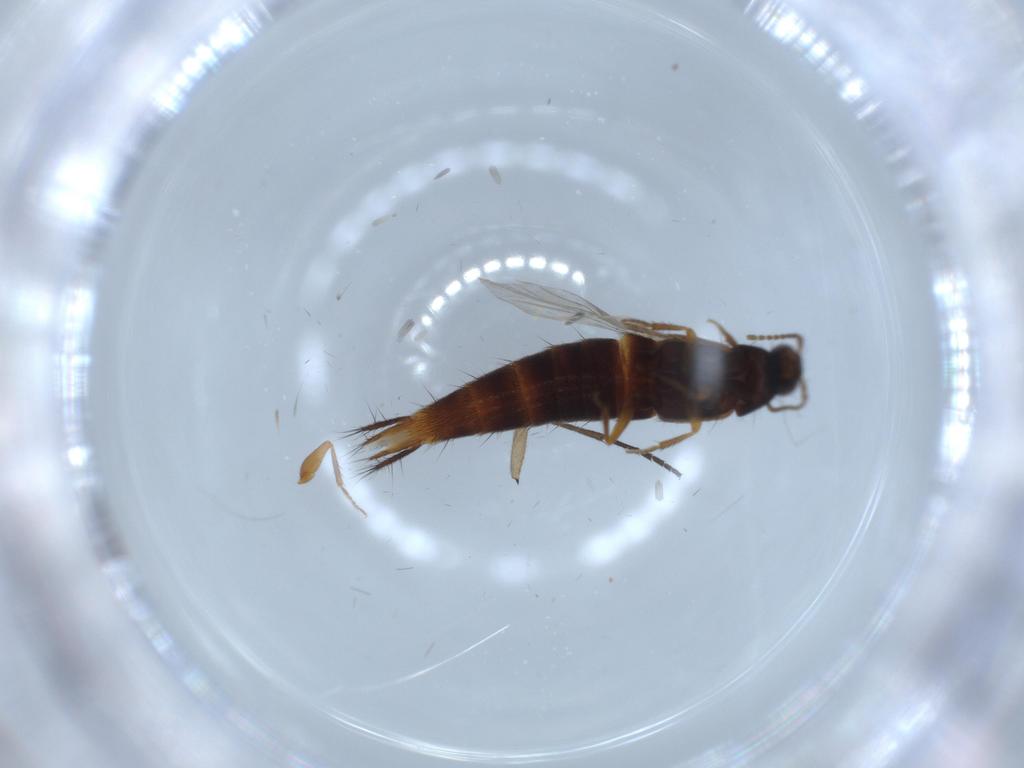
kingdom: Animalia
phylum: Arthropoda
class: Insecta
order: Coleoptera
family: Staphylinidae
